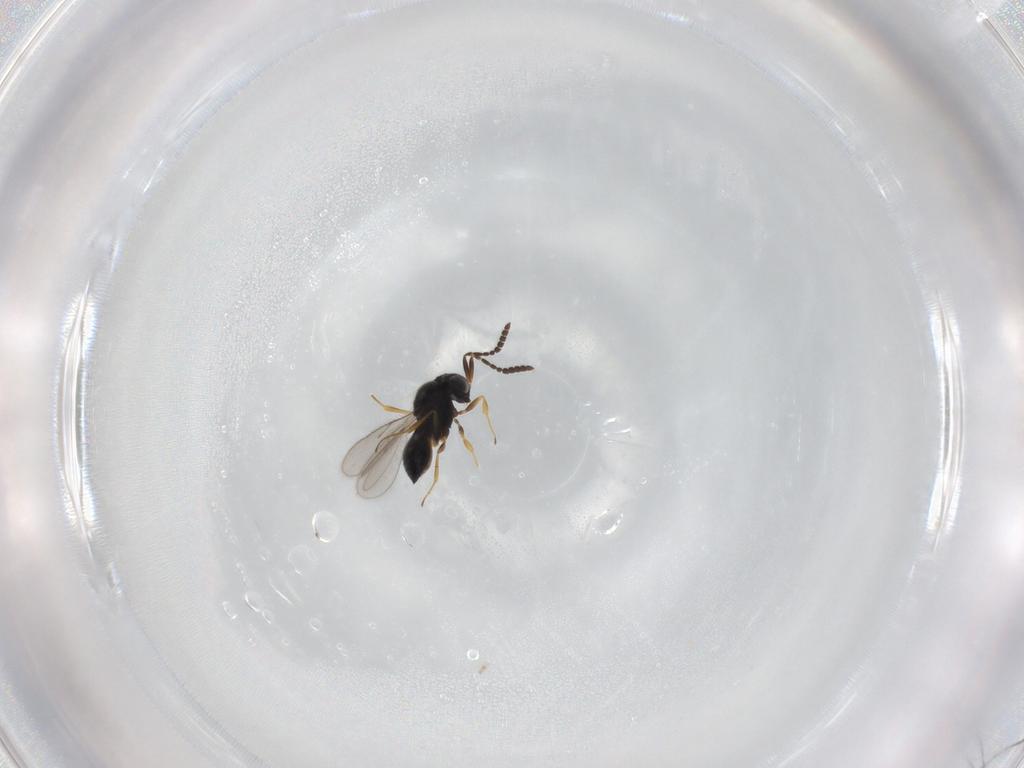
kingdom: Animalia
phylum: Arthropoda
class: Insecta
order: Hymenoptera
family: Scelionidae
